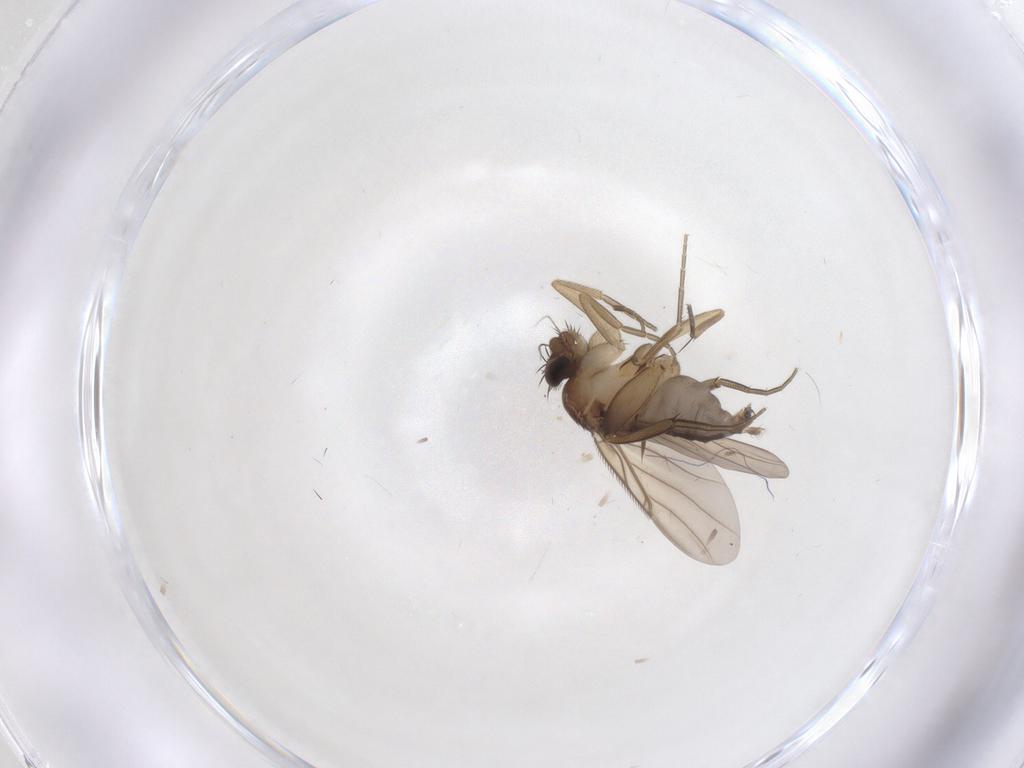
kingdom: Animalia
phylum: Arthropoda
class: Insecta
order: Diptera
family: Phoridae
